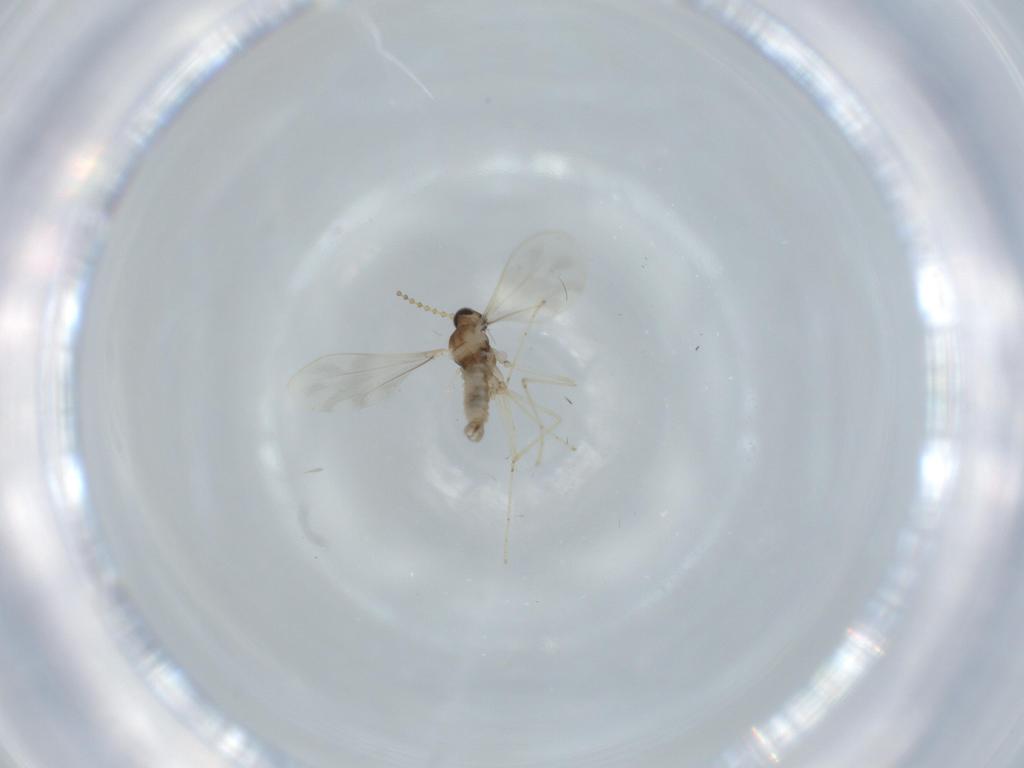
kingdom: Animalia
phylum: Arthropoda
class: Insecta
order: Diptera
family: Cecidomyiidae
